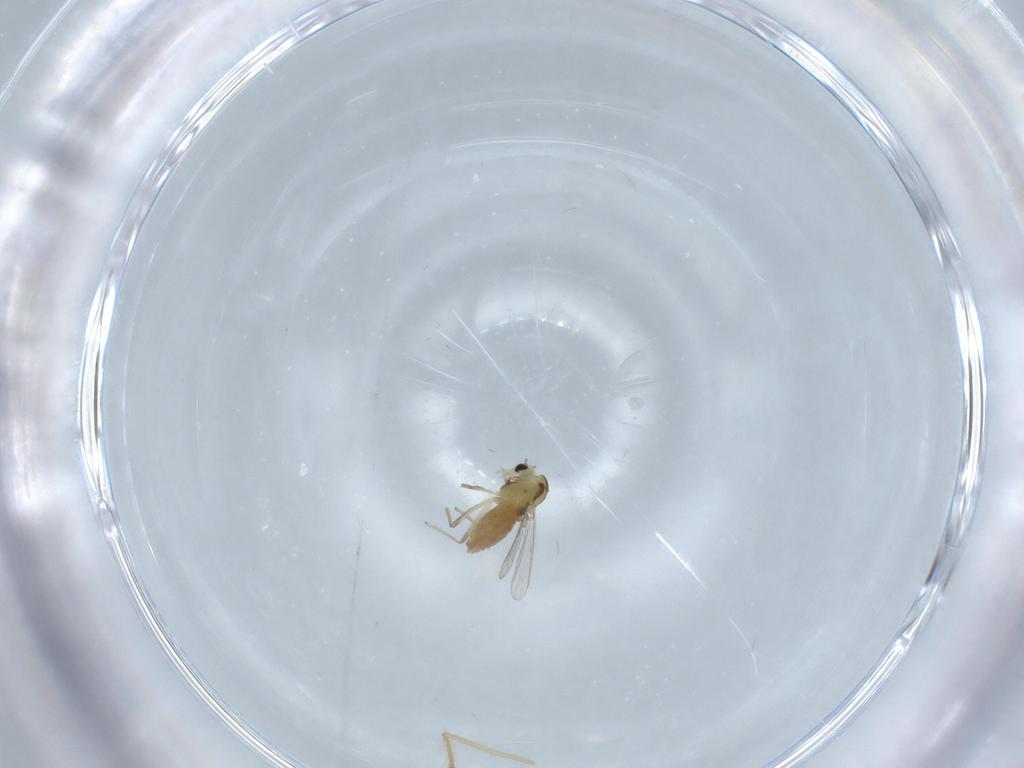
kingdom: Animalia
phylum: Arthropoda
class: Insecta
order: Diptera
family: Chironomidae
